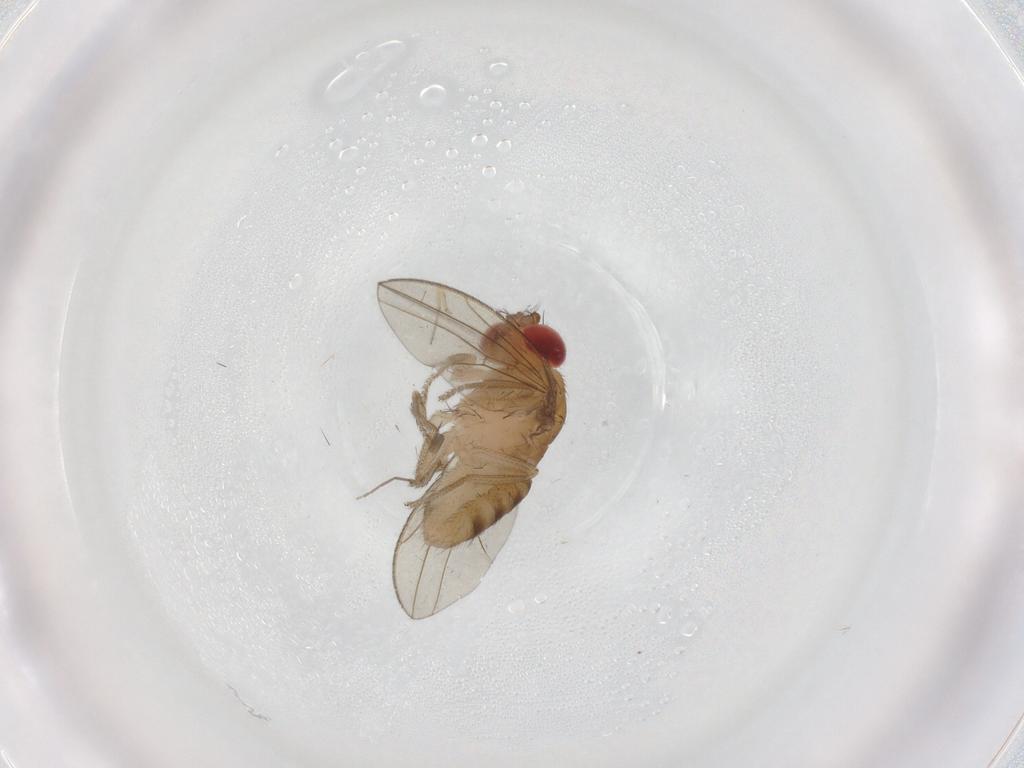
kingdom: Animalia
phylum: Arthropoda
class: Insecta
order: Diptera
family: Drosophilidae
